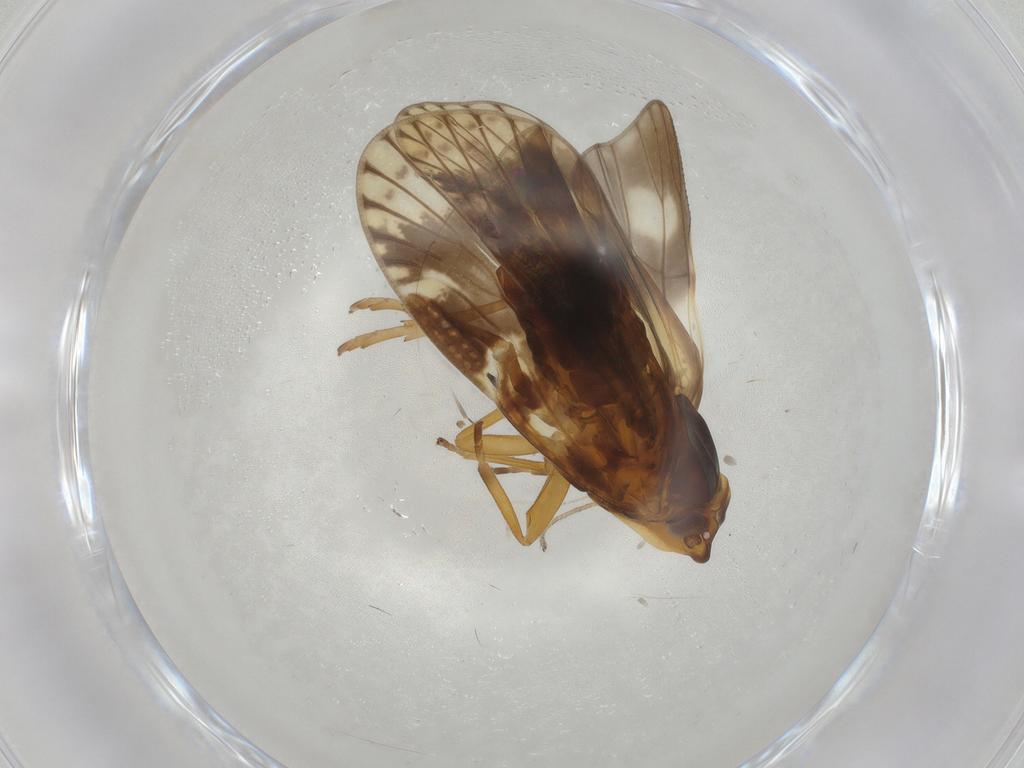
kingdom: Animalia
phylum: Arthropoda
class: Insecta
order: Hemiptera
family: Cixiidae
